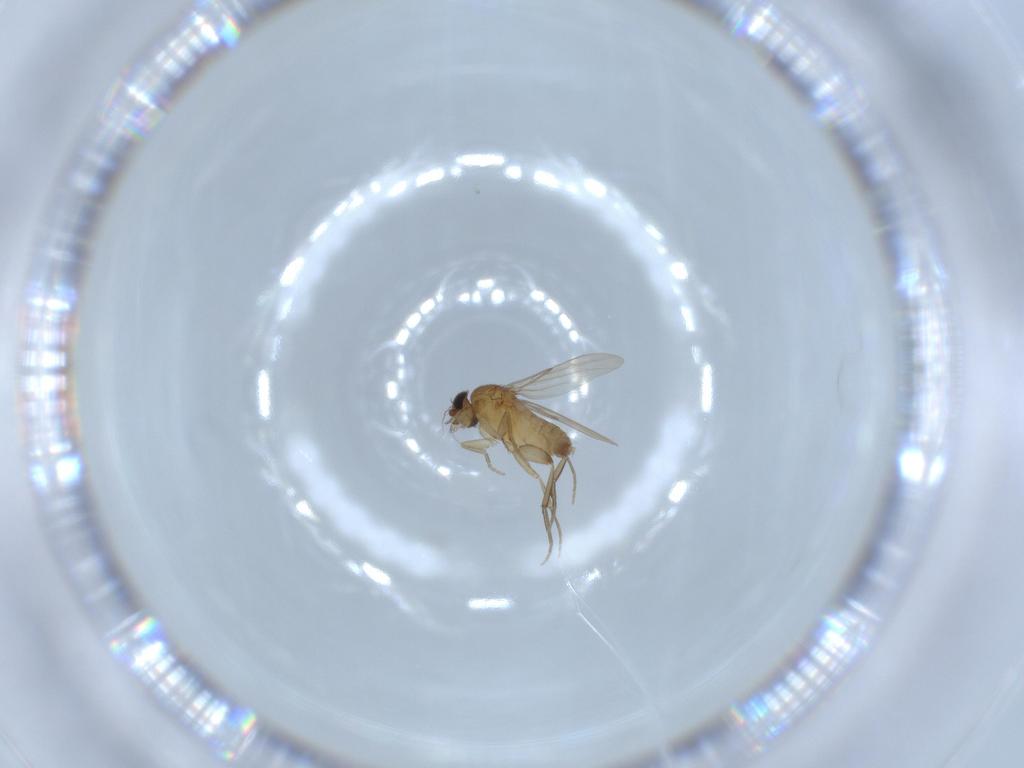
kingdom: Animalia
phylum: Arthropoda
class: Insecta
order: Diptera
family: Phoridae
